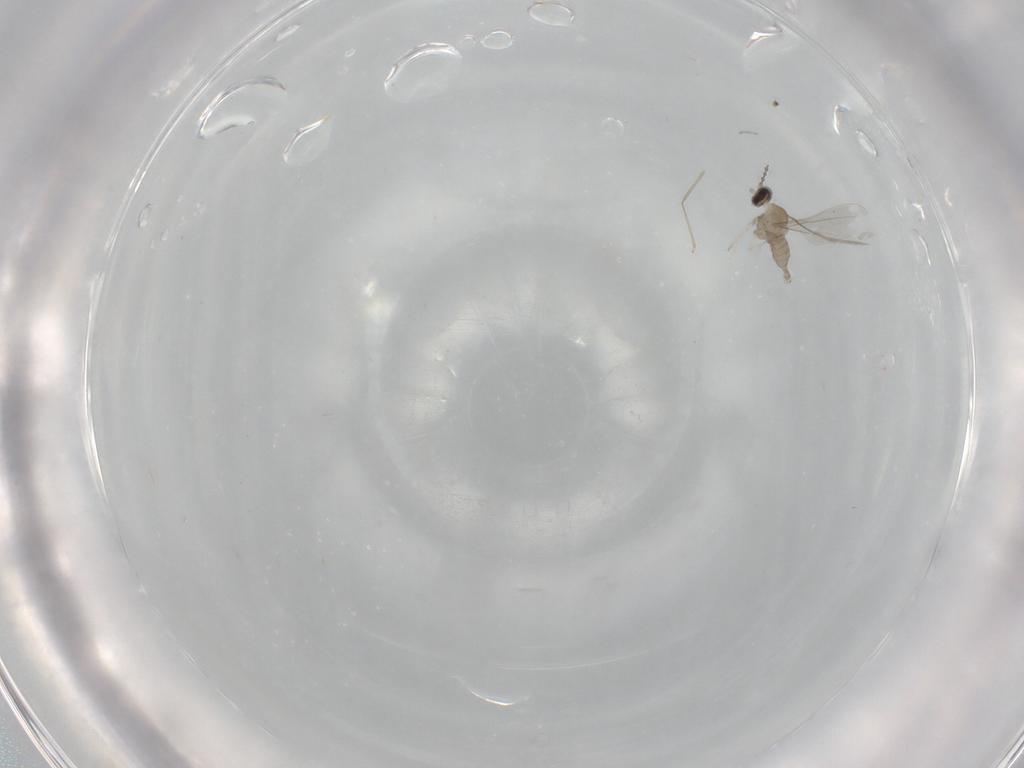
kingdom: Animalia
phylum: Arthropoda
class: Insecta
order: Diptera
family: Cecidomyiidae
